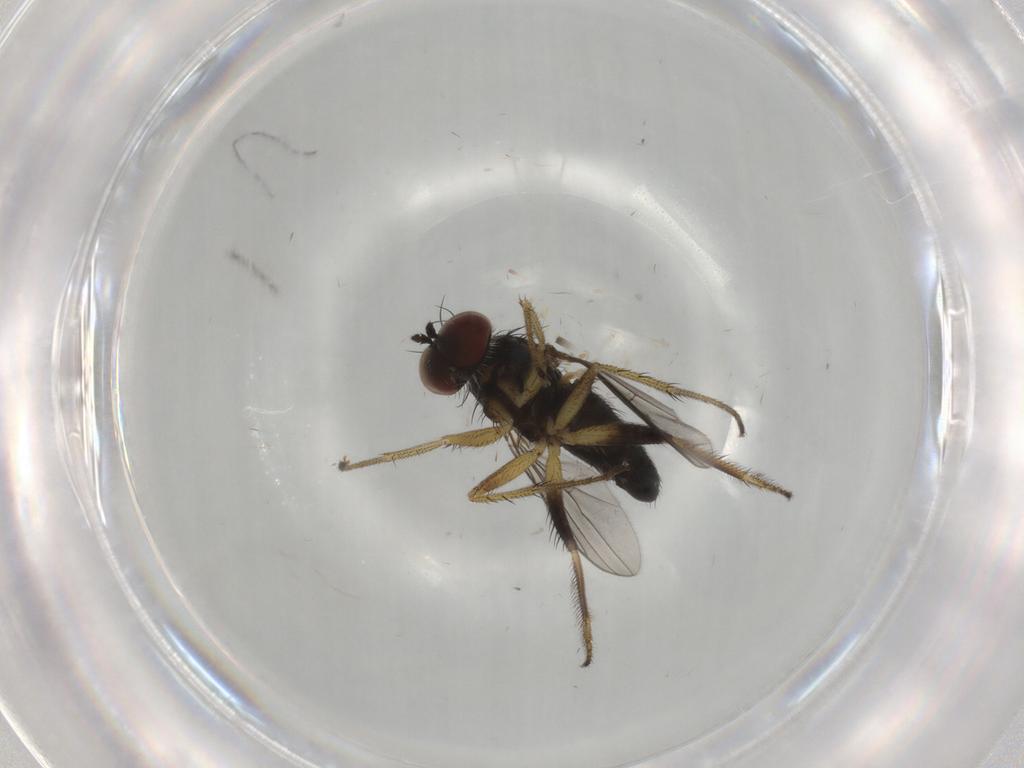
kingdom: Animalia
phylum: Arthropoda
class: Insecta
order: Diptera
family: Dolichopodidae
